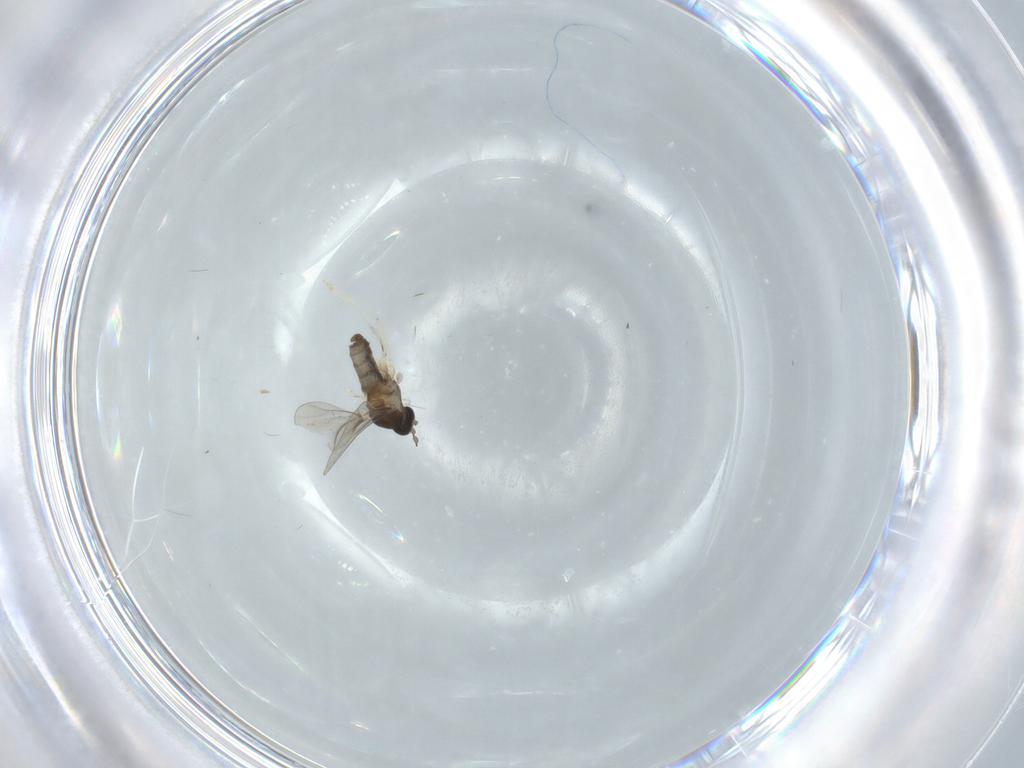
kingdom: Animalia
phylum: Arthropoda
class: Insecta
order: Diptera
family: Cecidomyiidae
